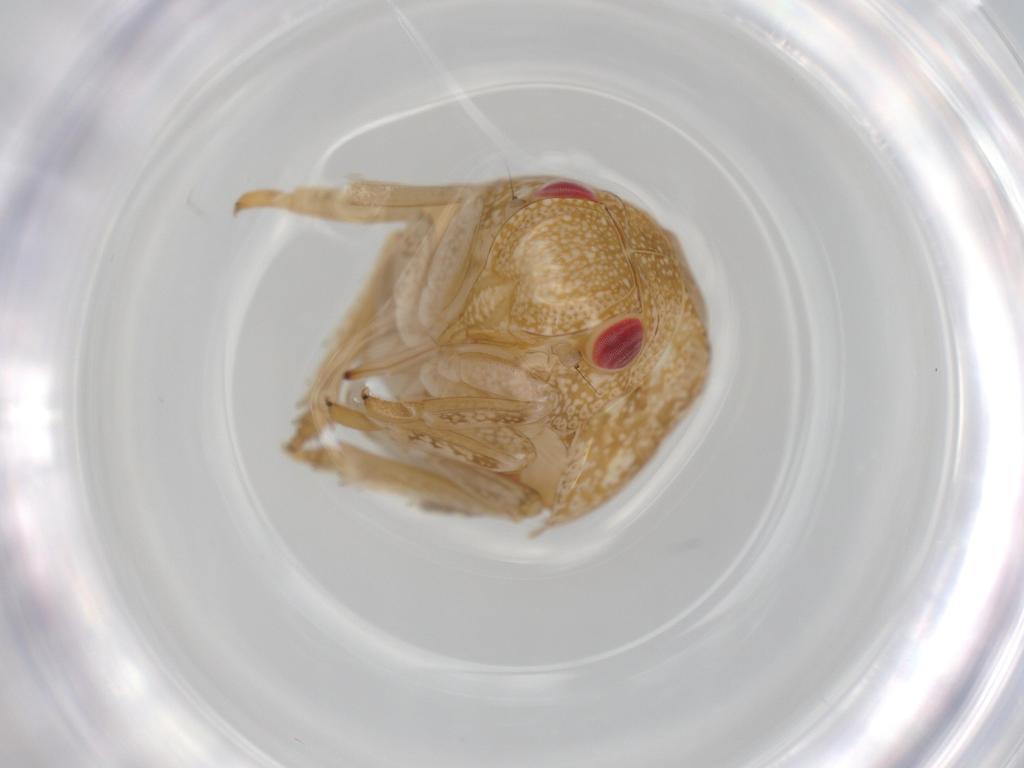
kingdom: Animalia
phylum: Arthropoda
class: Insecta
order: Hemiptera
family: Acanaloniidae
